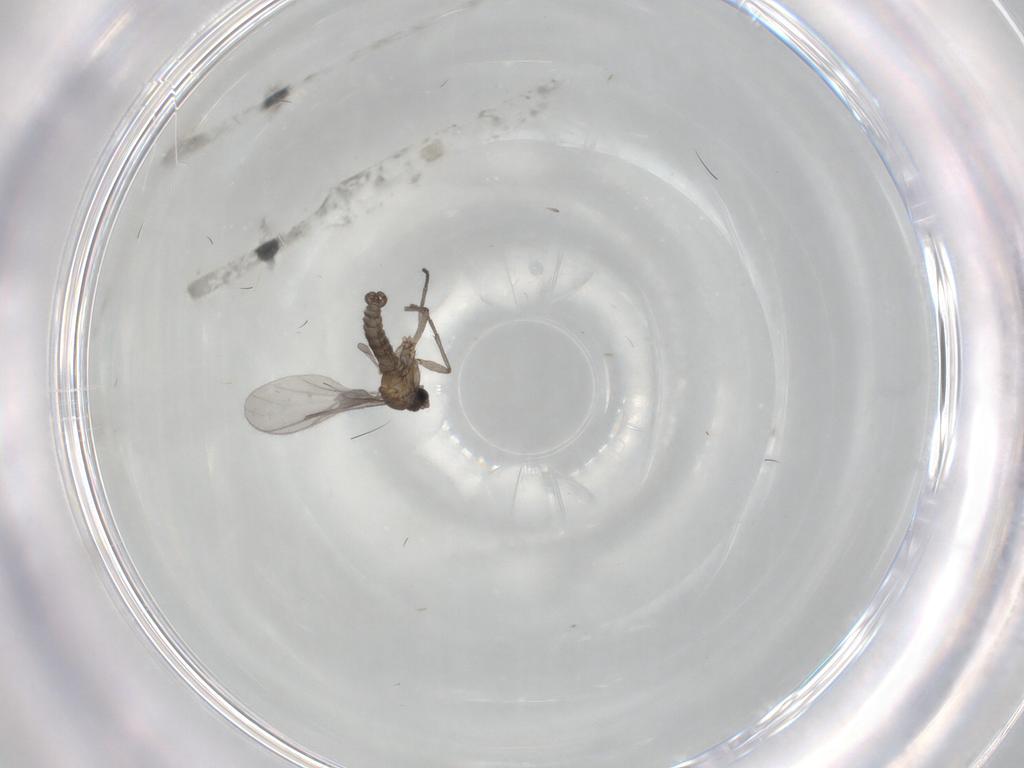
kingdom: Animalia
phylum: Arthropoda
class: Insecta
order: Diptera
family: Sciaridae
